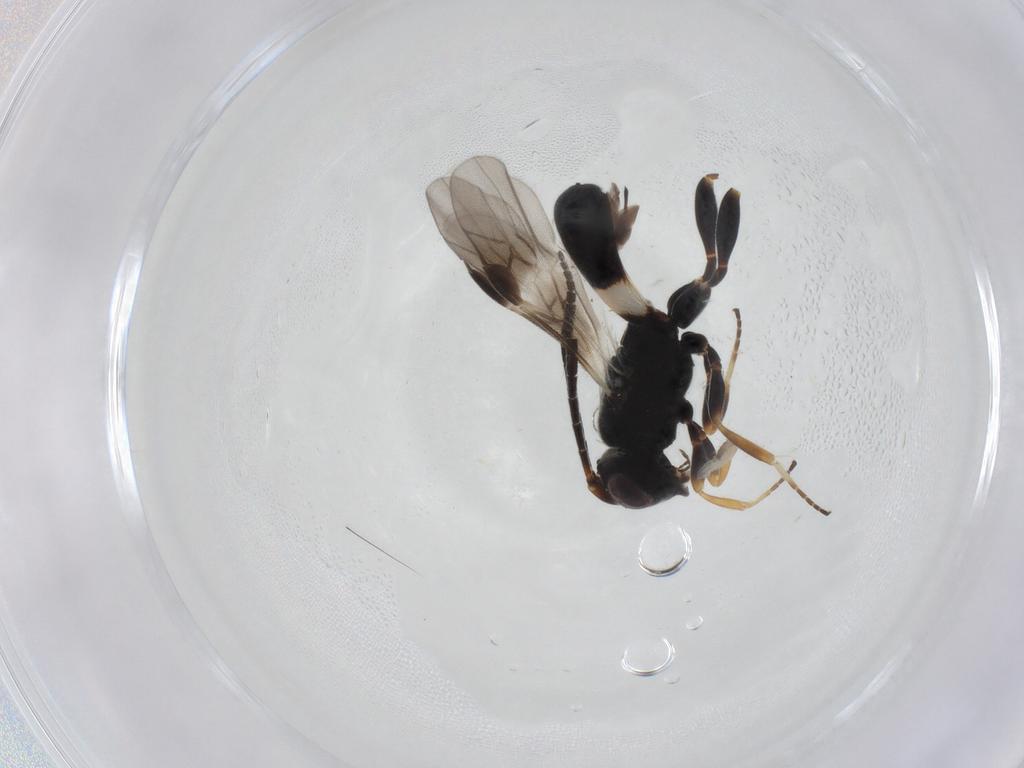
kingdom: Animalia
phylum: Arthropoda
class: Insecta
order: Hymenoptera
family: Braconidae
